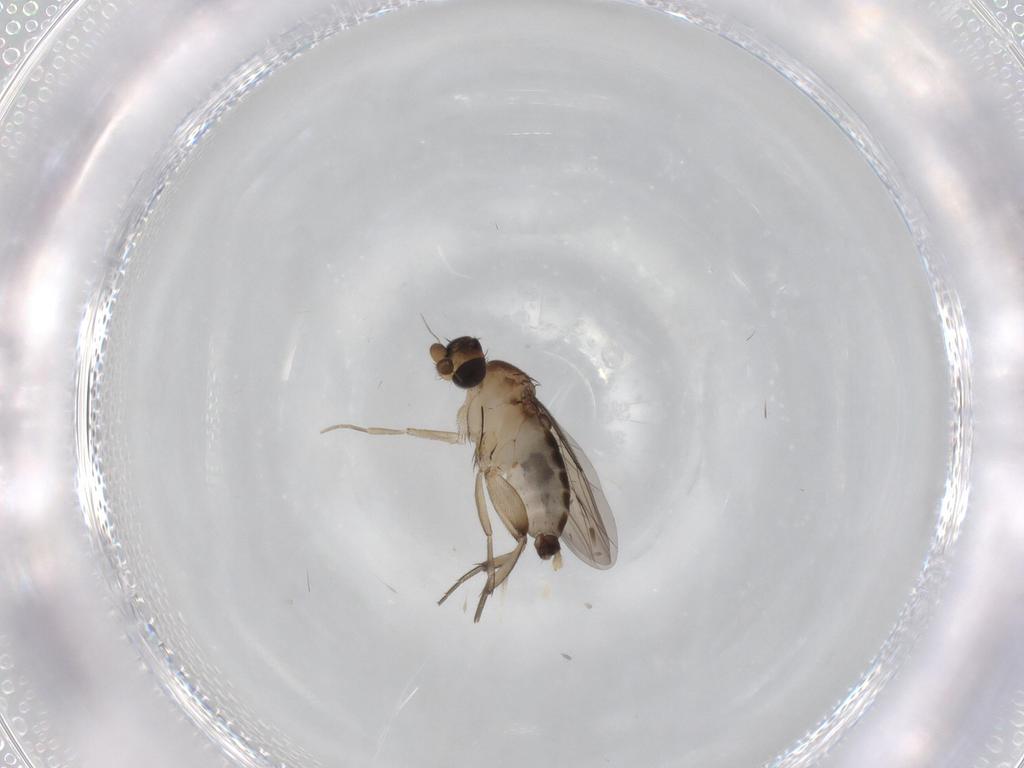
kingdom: Animalia
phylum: Arthropoda
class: Insecta
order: Diptera
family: Phoridae
